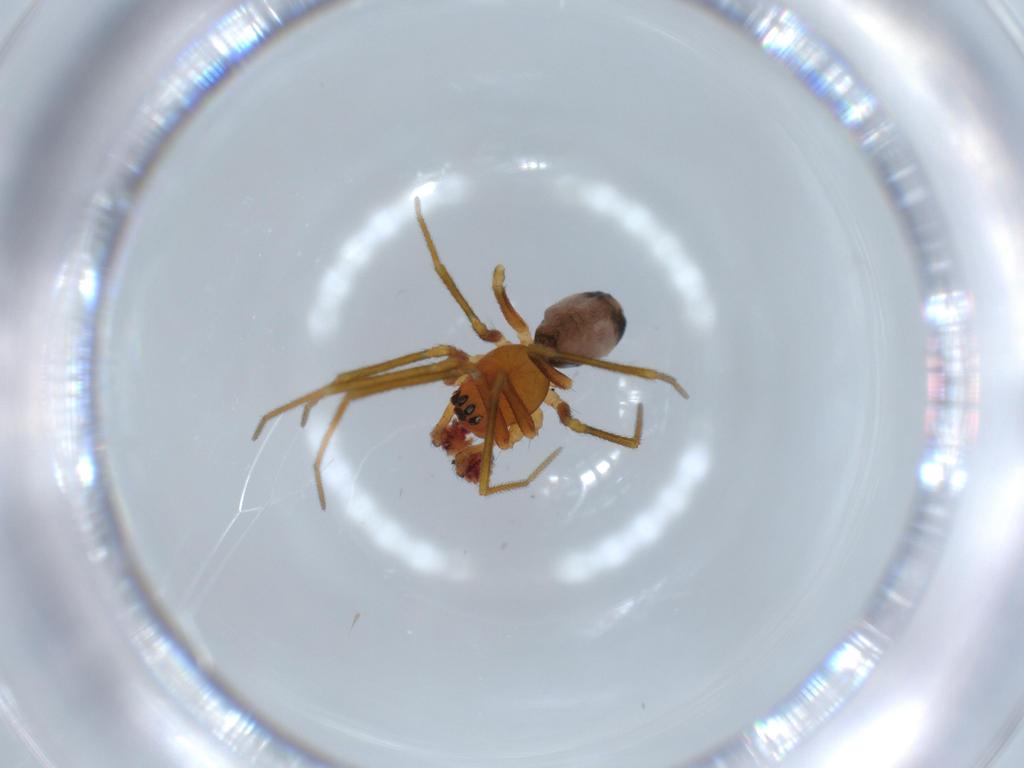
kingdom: Animalia
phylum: Arthropoda
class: Arachnida
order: Araneae
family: Linyphiidae
